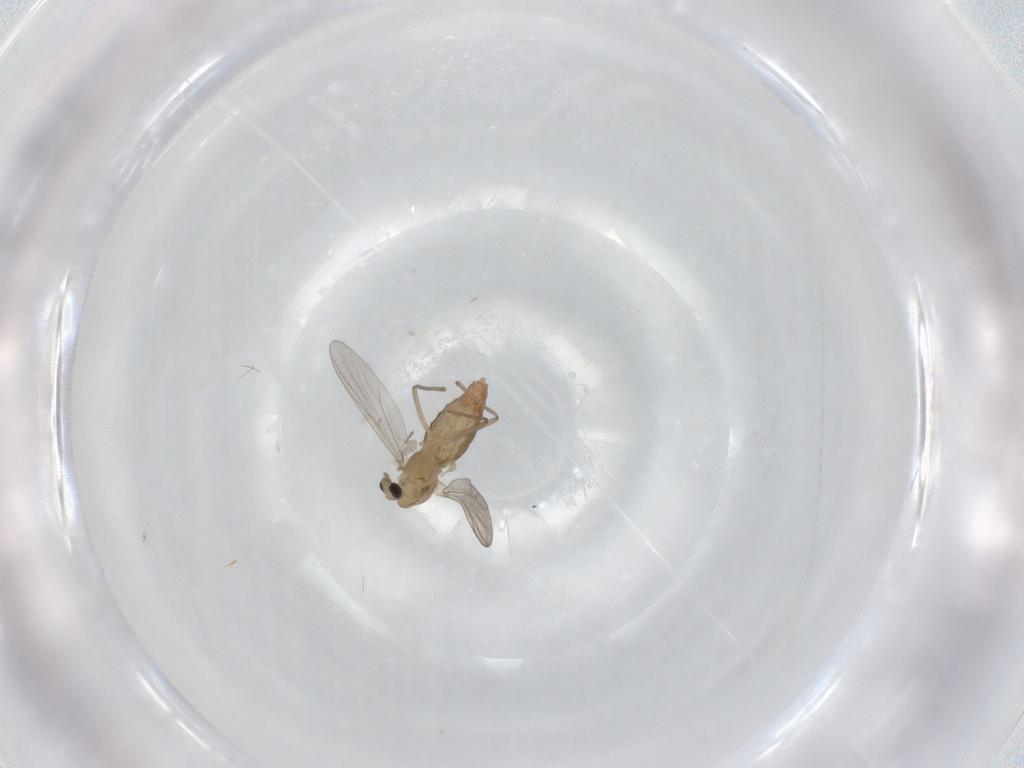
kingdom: Animalia
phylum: Arthropoda
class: Insecta
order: Diptera
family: Chironomidae
